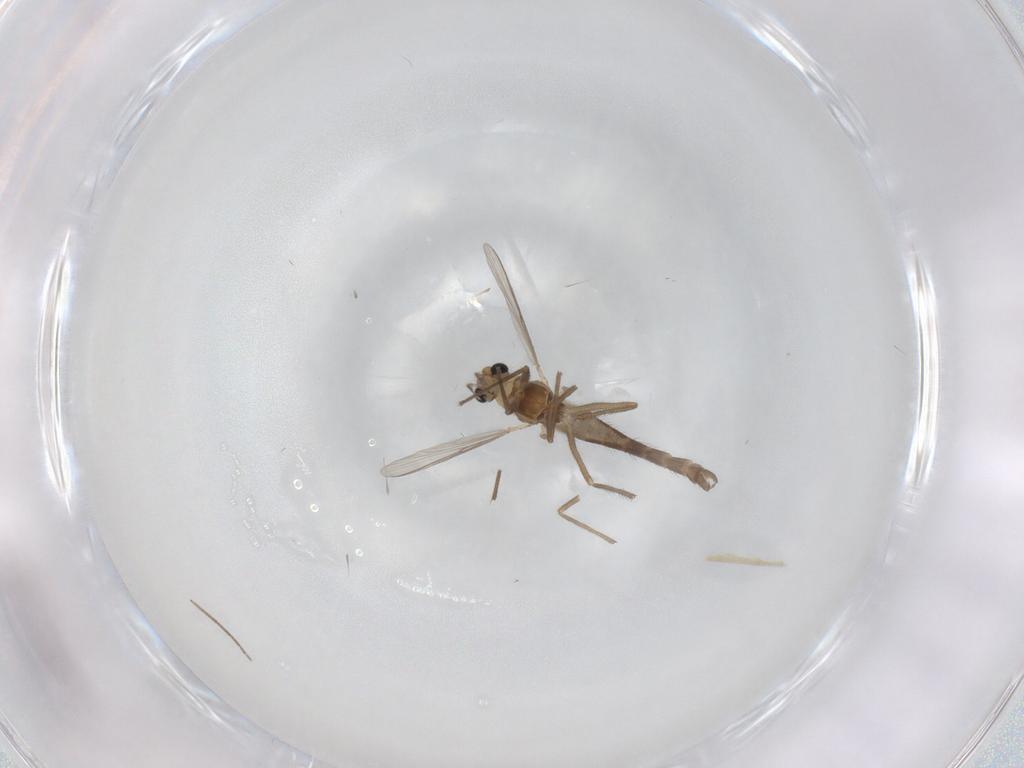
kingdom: Animalia
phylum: Arthropoda
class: Insecta
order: Diptera
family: Chironomidae
